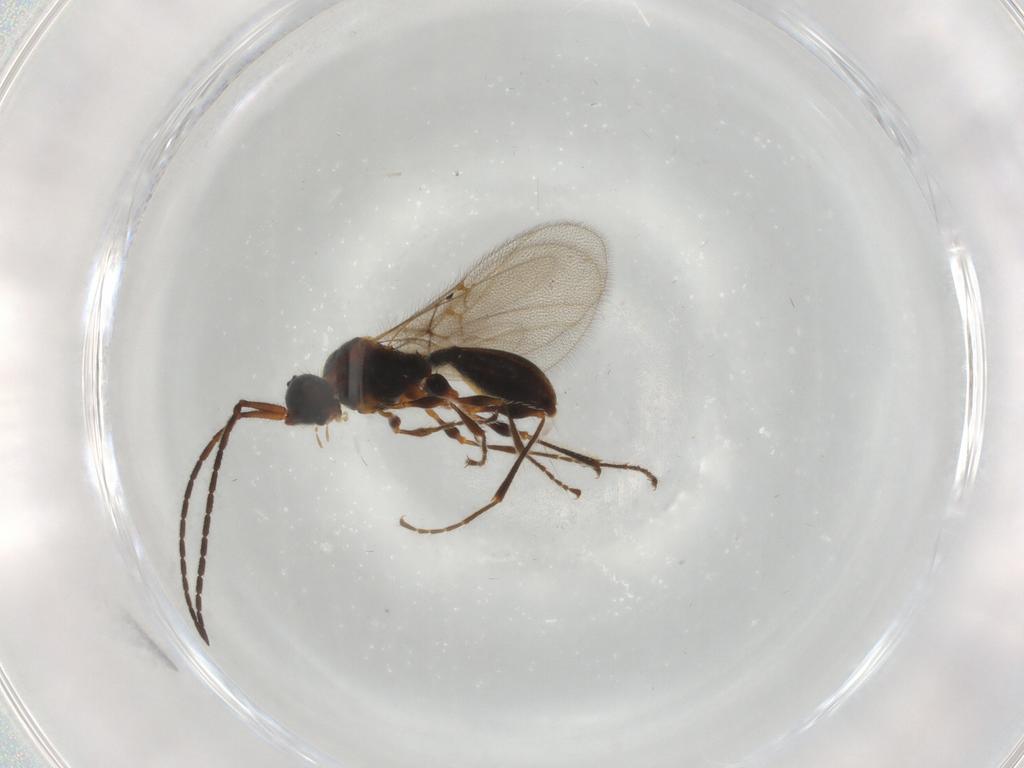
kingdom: Animalia
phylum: Arthropoda
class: Insecta
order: Hymenoptera
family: Diapriidae
